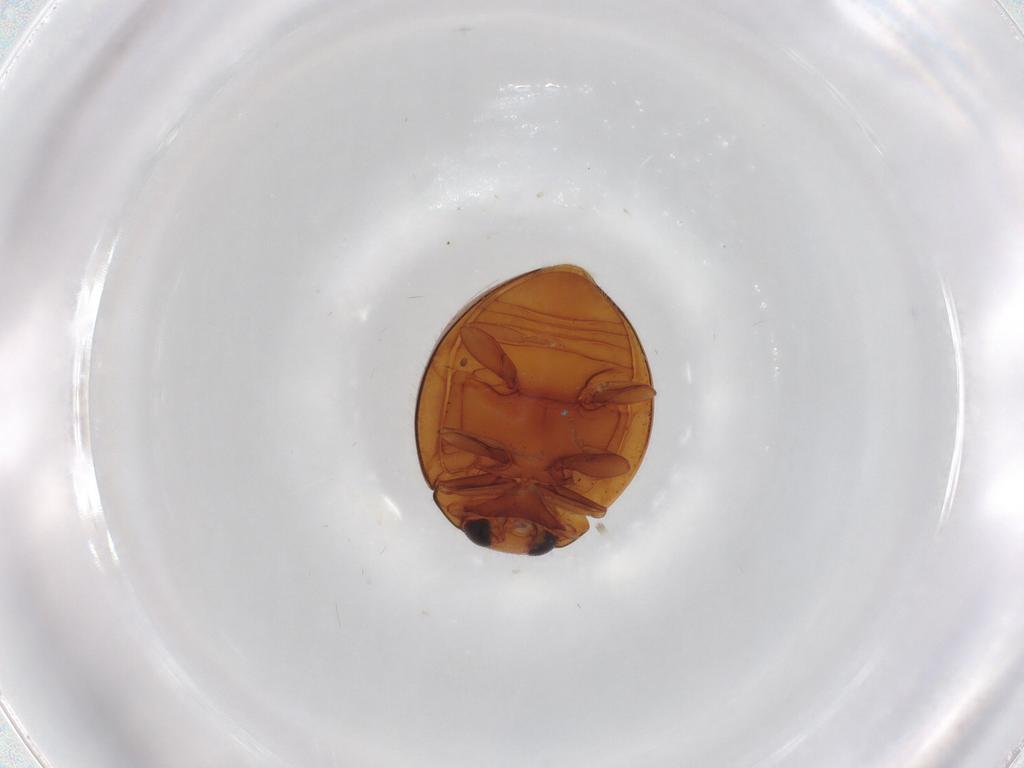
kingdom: Animalia
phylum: Arthropoda
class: Insecta
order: Coleoptera
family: Coccinellidae
